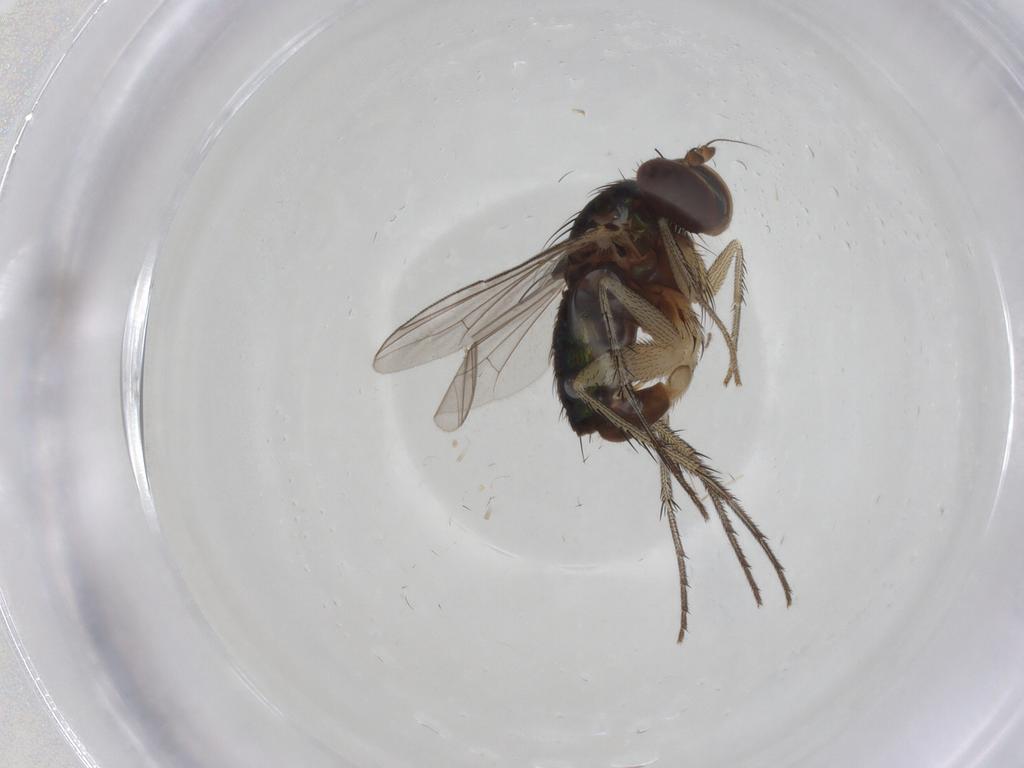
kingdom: Animalia
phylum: Arthropoda
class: Insecta
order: Diptera
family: Dolichopodidae
